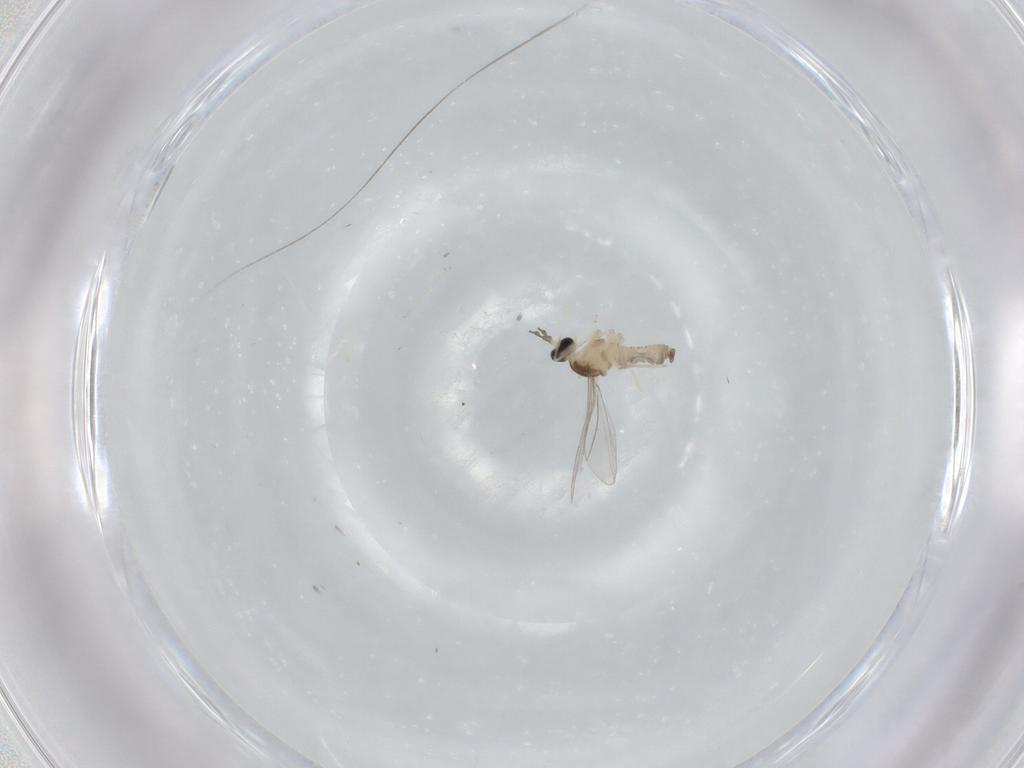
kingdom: Animalia
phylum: Arthropoda
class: Insecta
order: Diptera
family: Cecidomyiidae
